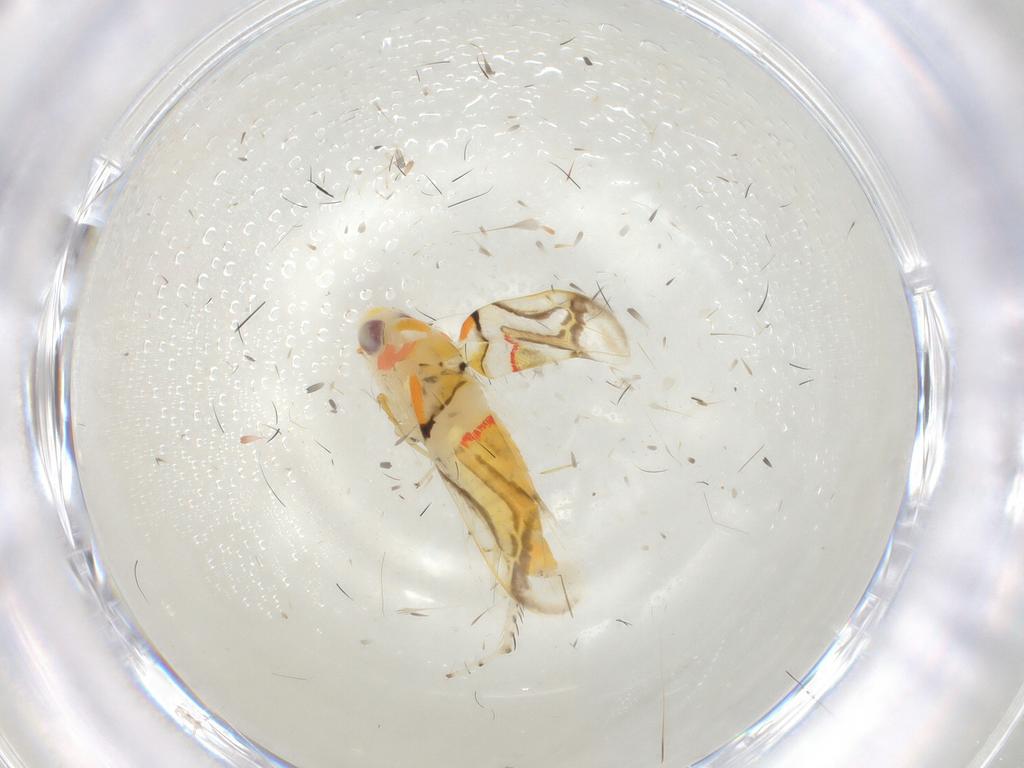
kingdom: Animalia
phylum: Arthropoda
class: Insecta
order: Hemiptera
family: Cicadellidae
